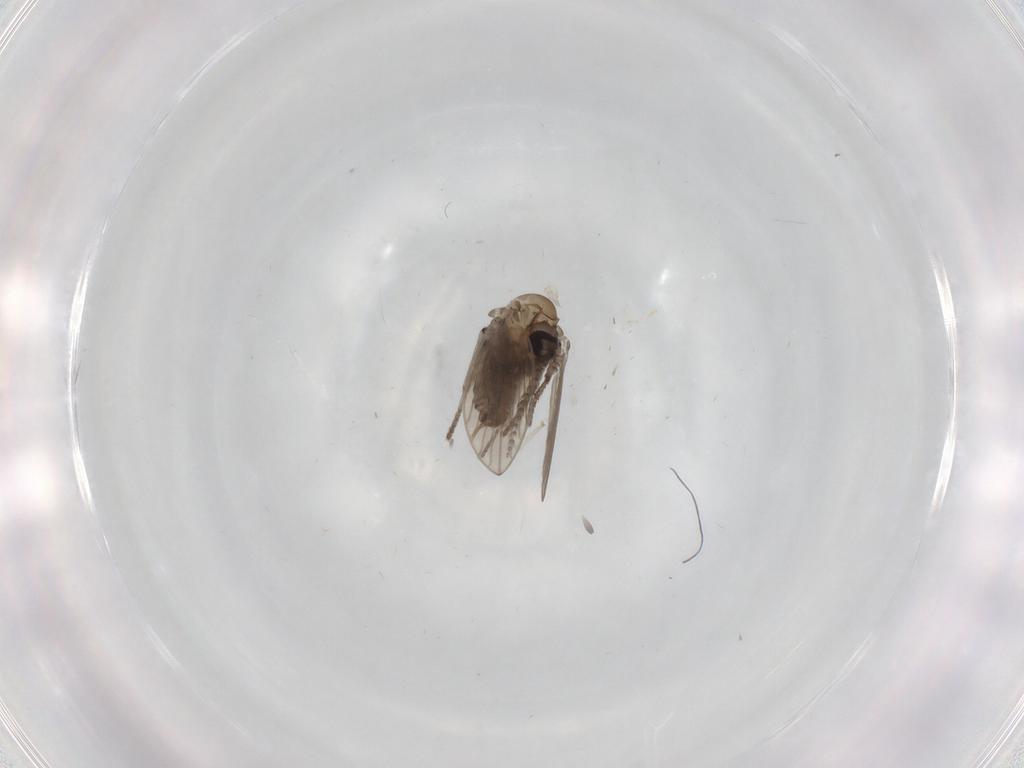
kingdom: Animalia
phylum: Arthropoda
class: Insecta
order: Diptera
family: Psychodidae
